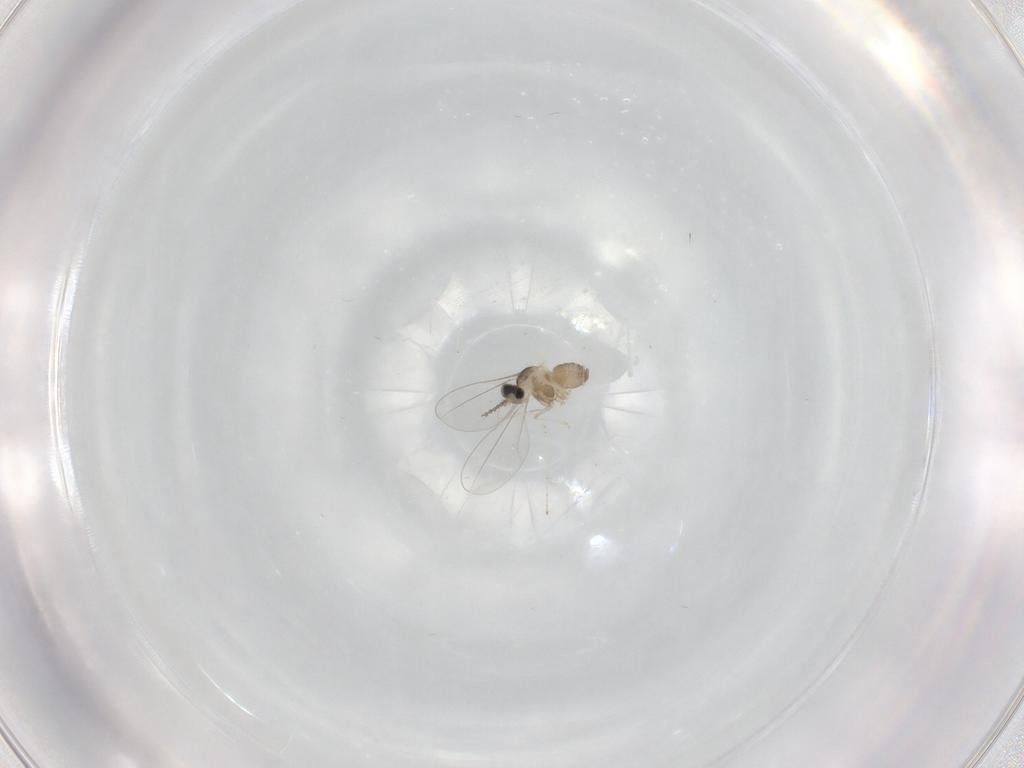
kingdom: Animalia
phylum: Arthropoda
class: Insecta
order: Diptera
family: Cecidomyiidae
